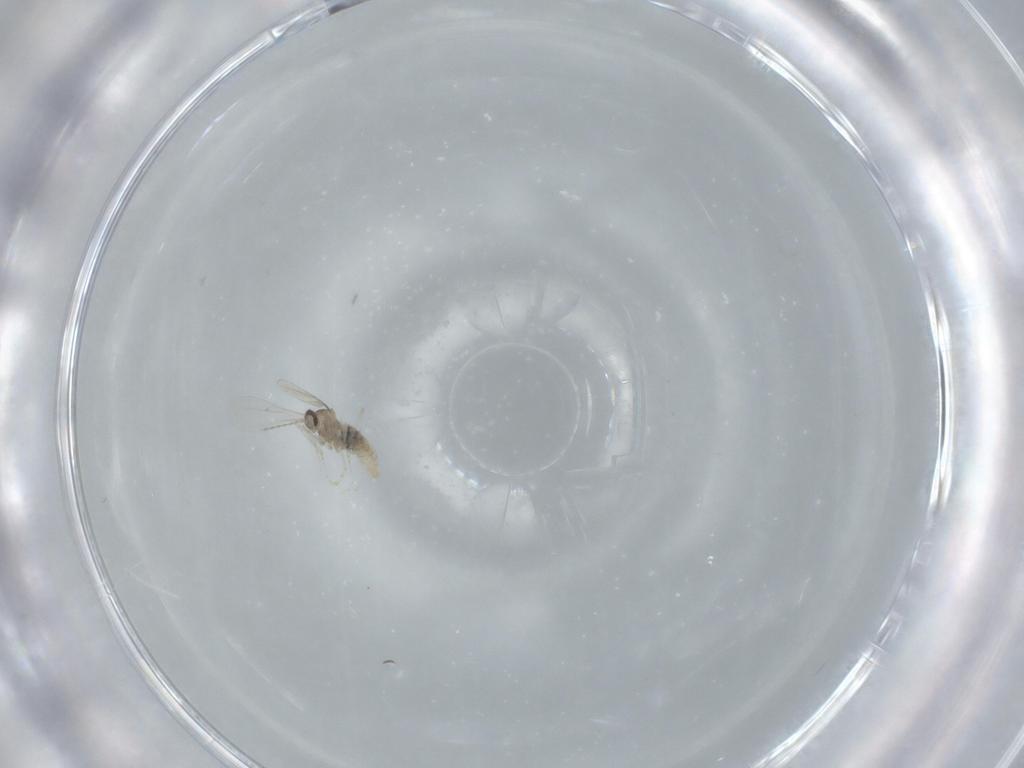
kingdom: Animalia
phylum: Arthropoda
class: Insecta
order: Diptera
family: Cecidomyiidae
